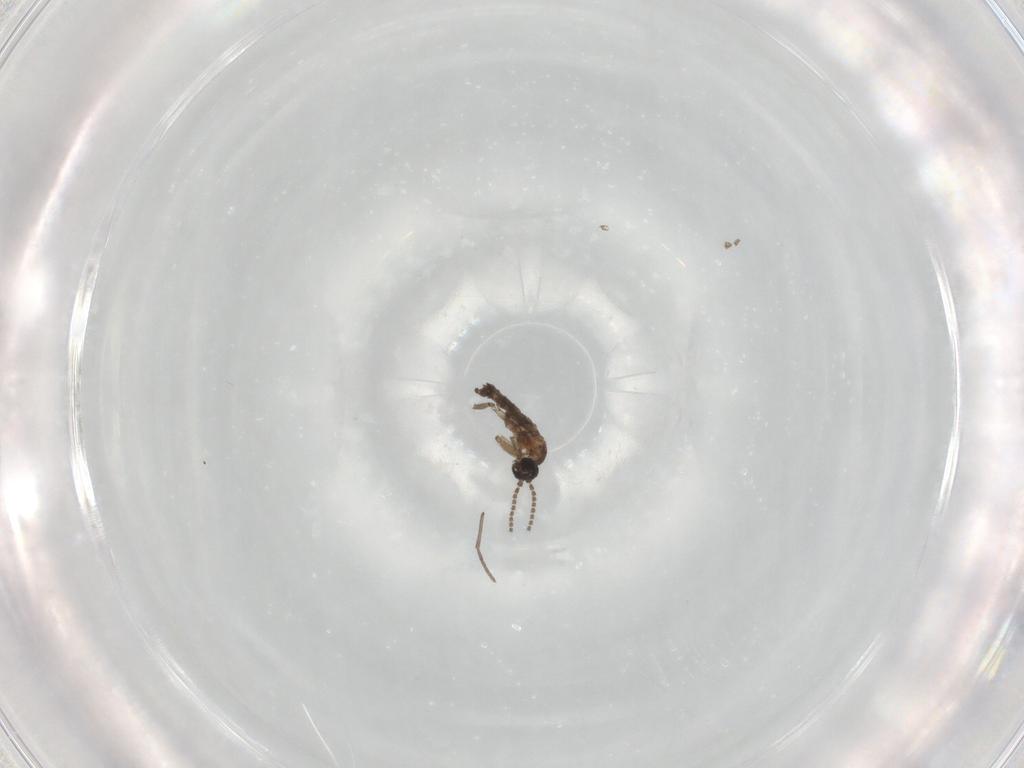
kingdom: Animalia
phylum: Arthropoda
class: Insecta
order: Diptera
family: Chironomidae
